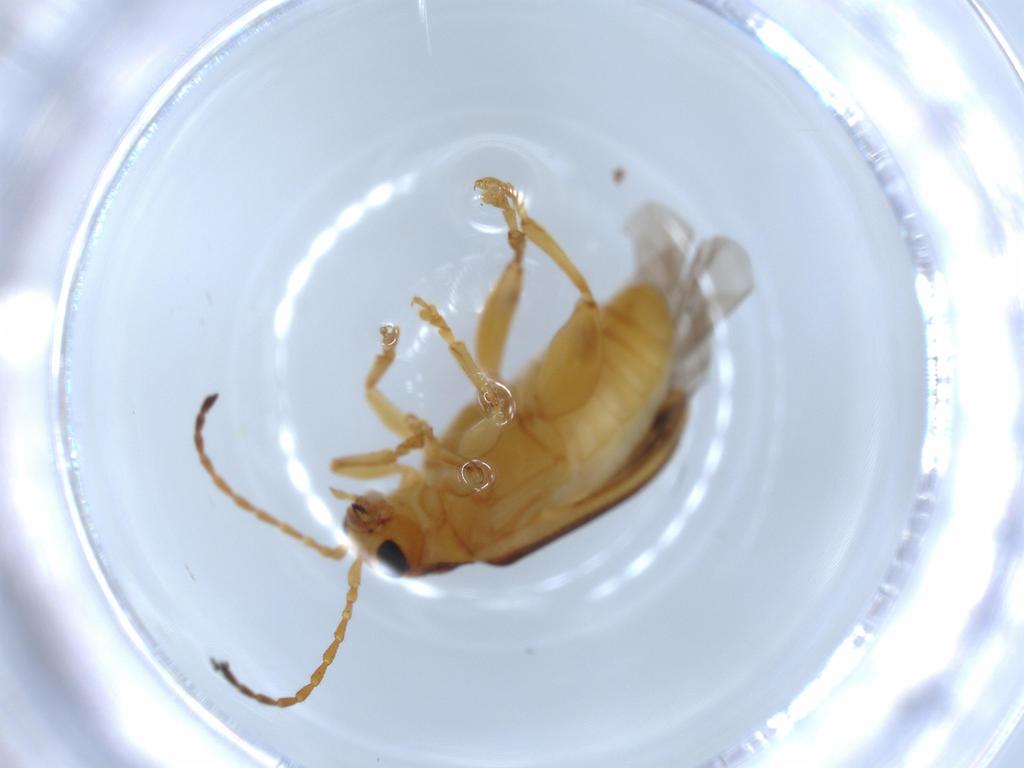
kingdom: Animalia
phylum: Arthropoda
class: Insecta
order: Coleoptera
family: Chrysomelidae
